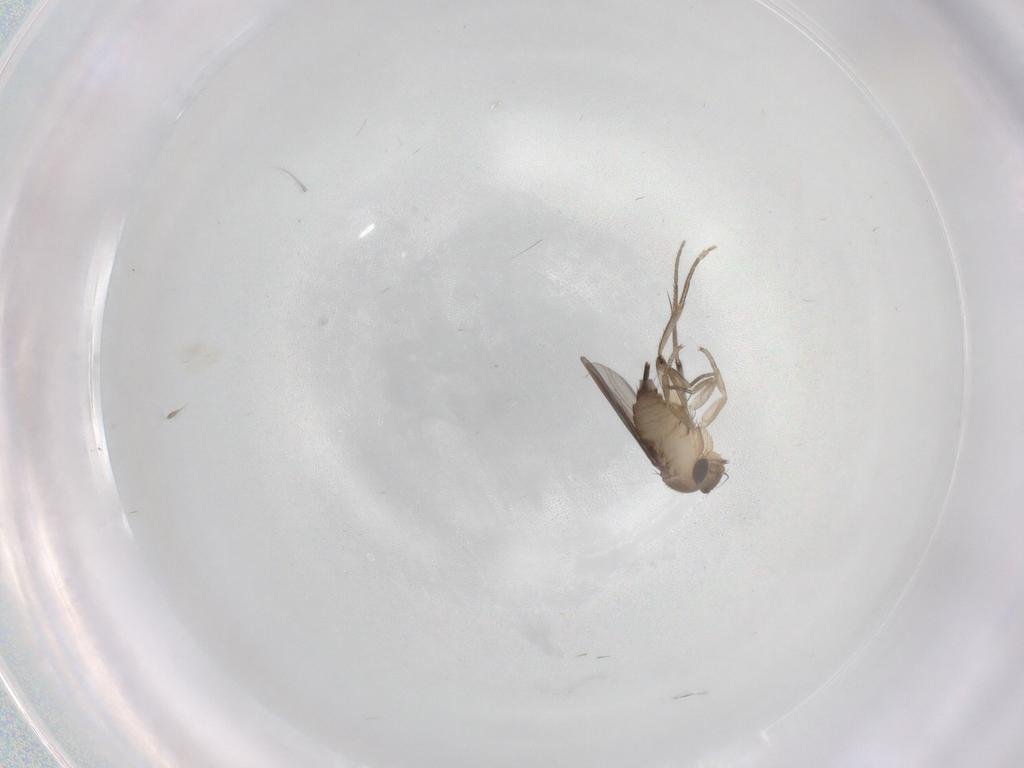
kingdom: Animalia
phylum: Arthropoda
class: Insecta
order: Diptera
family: Phoridae
